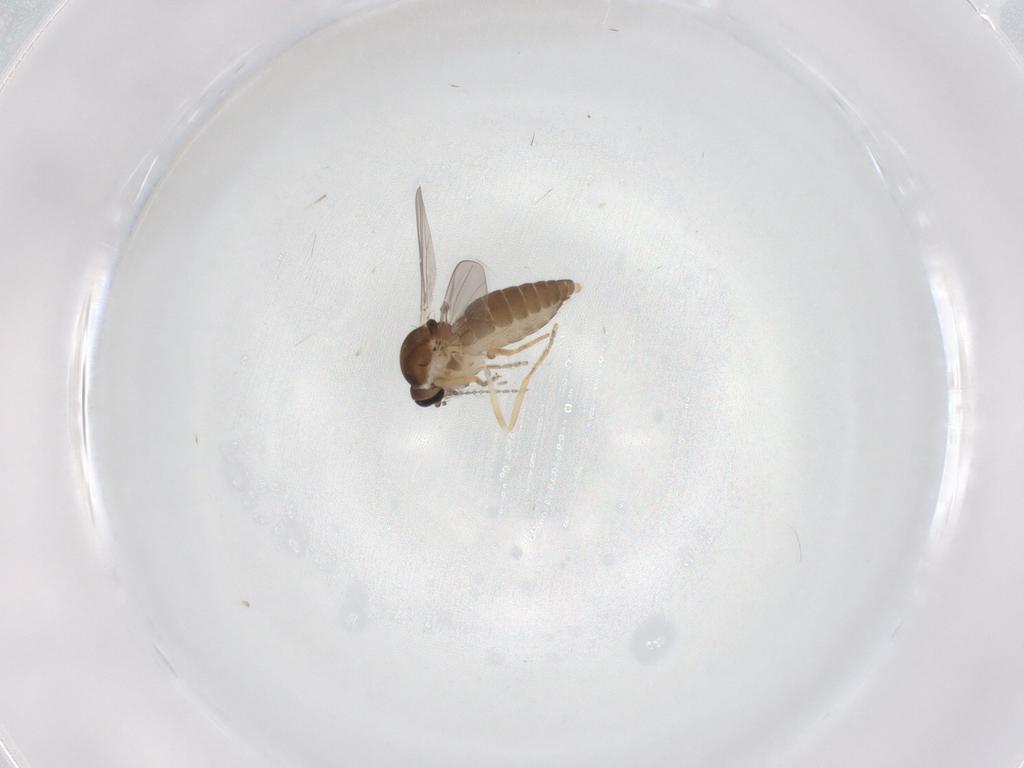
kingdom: Animalia
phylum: Arthropoda
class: Insecta
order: Diptera
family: Ceratopogonidae
